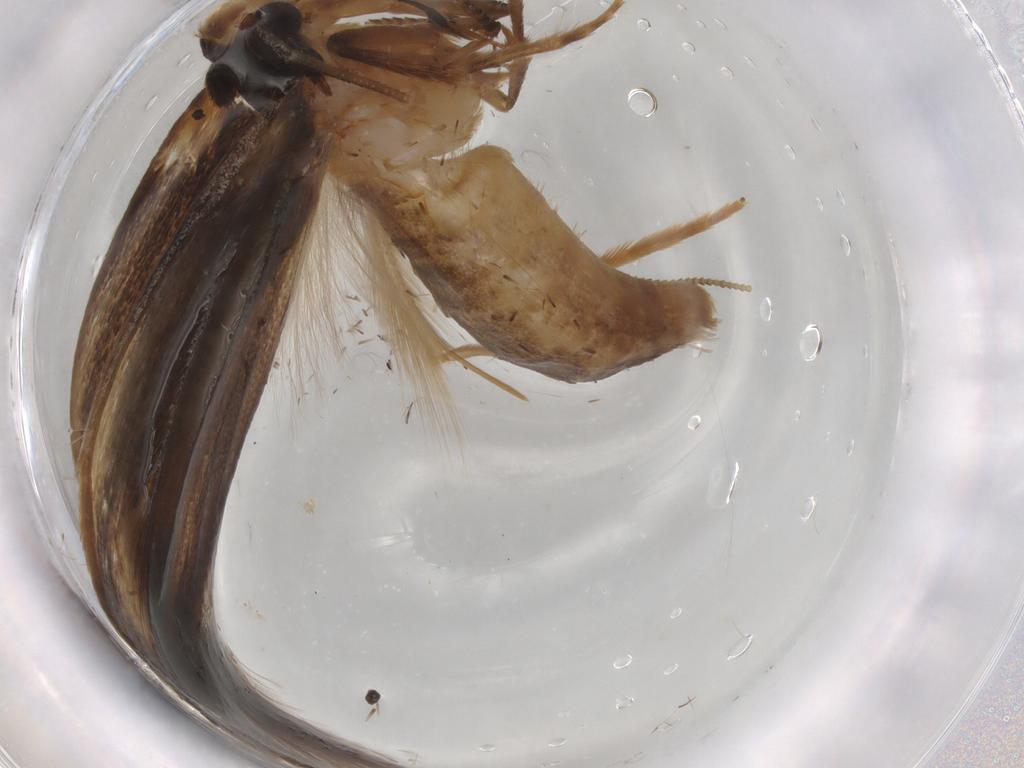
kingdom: Animalia
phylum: Arthropoda
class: Insecta
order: Lepidoptera
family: Tineidae
